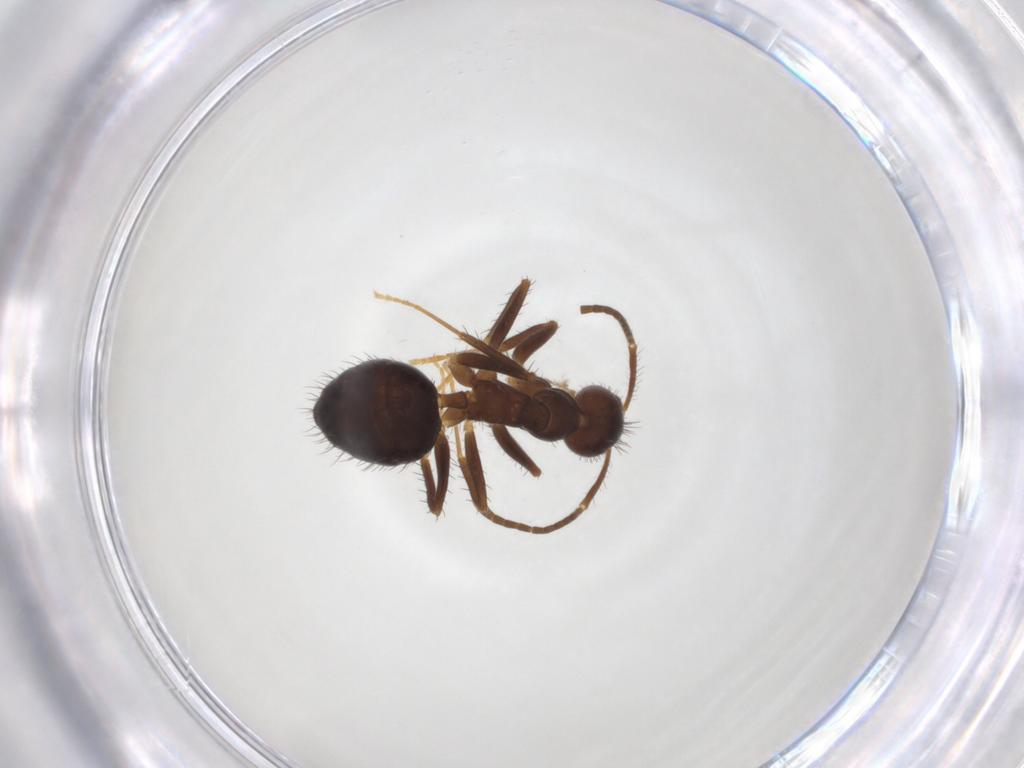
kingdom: Animalia
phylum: Arthropoda
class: Insecta
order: Hymenoptera
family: Formicidae
